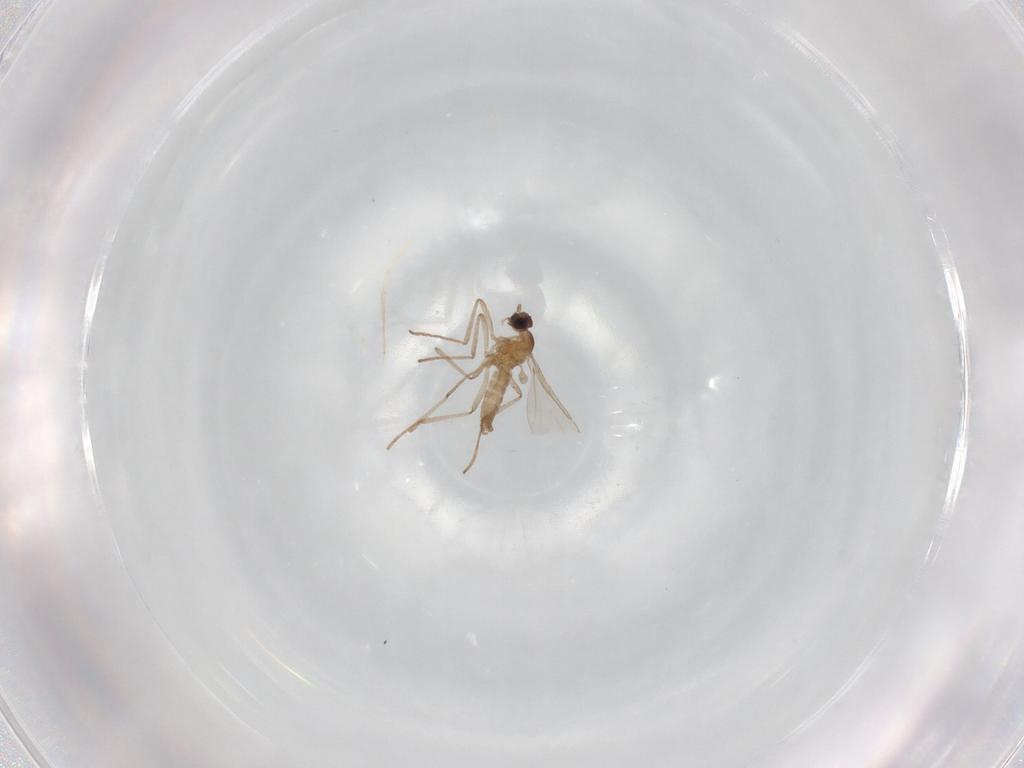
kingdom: Animalia
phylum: Arthropoda
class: Insecta
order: Diptera
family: Cecidomyiidae
